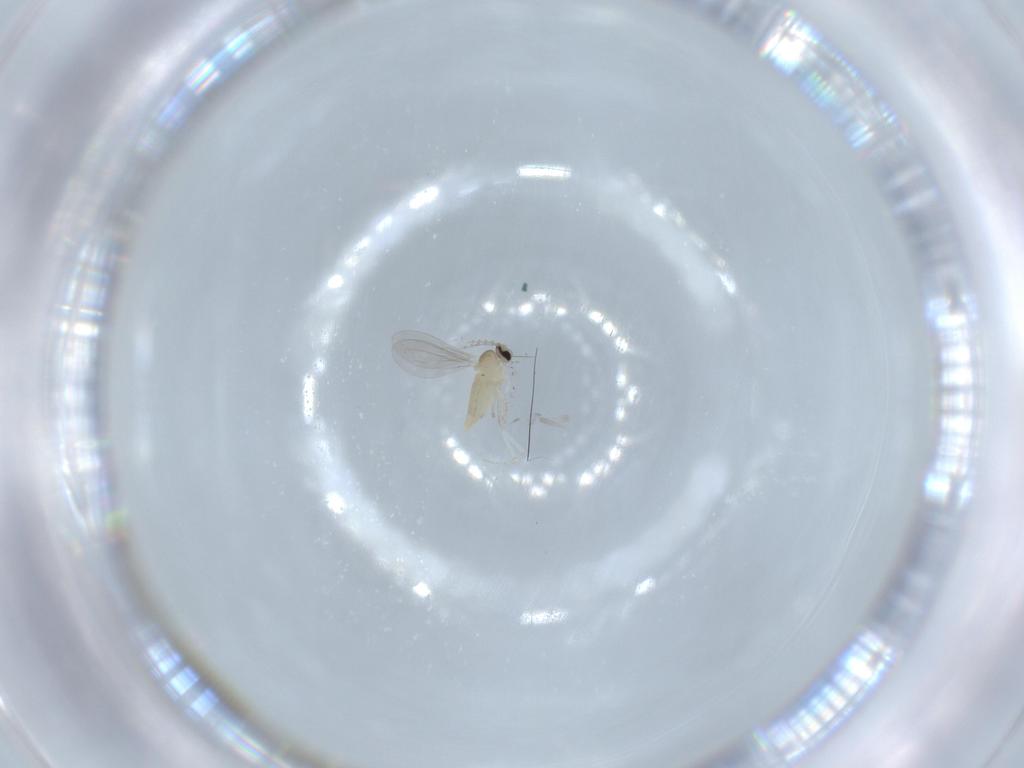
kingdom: Animalia
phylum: Arthropoda
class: Insecta
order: Diptera
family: Cecidomyiidae
